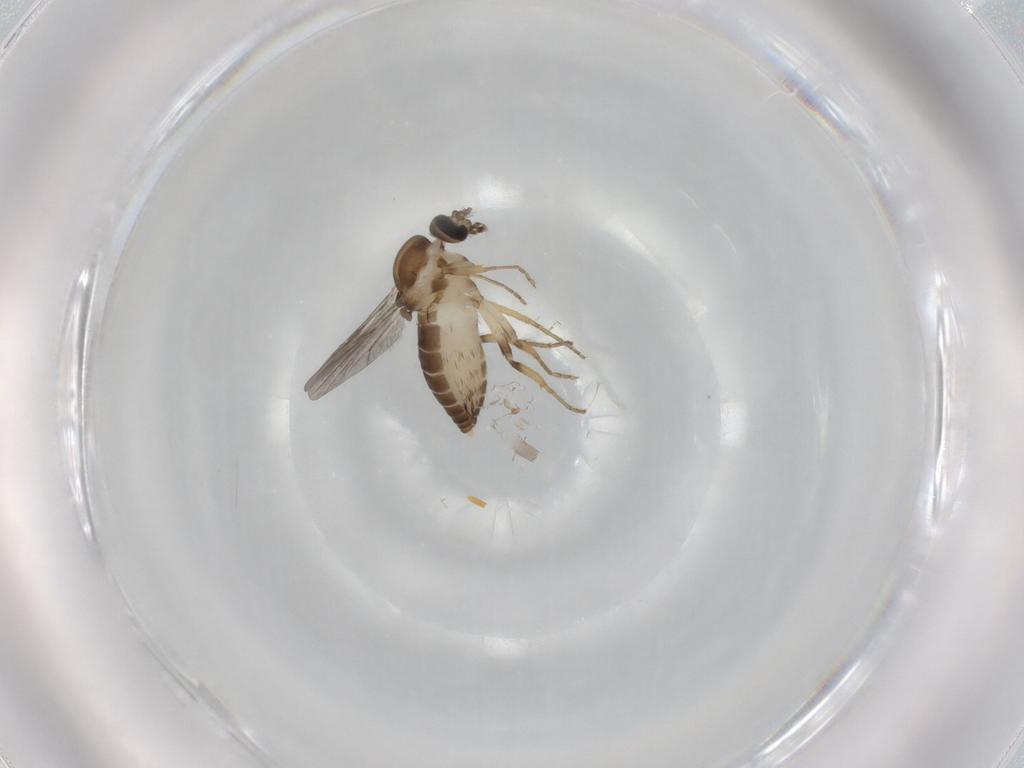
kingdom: Animalia
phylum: Arthropoda
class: Insecta
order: Diptera
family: Ceratopogonidae
